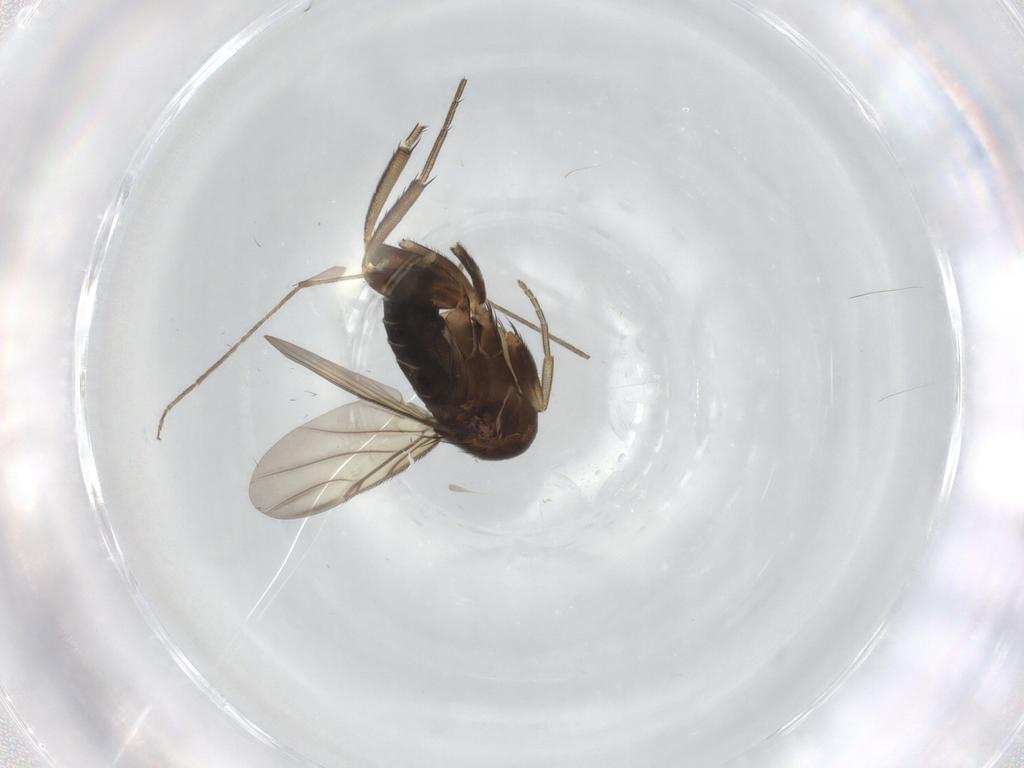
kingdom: Animalia
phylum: Arthropoda
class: Insecta
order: Diptera
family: Phoridae
